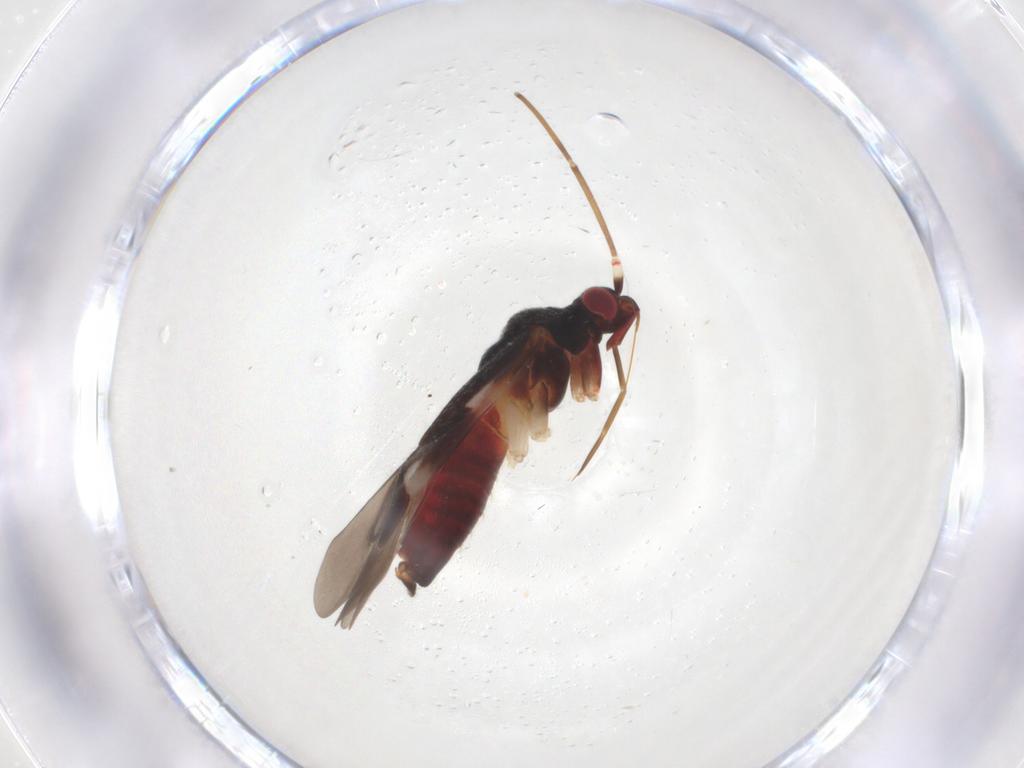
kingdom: Animalia
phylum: Arthropoda
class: Insecta
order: Hemiptera
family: Miridae
